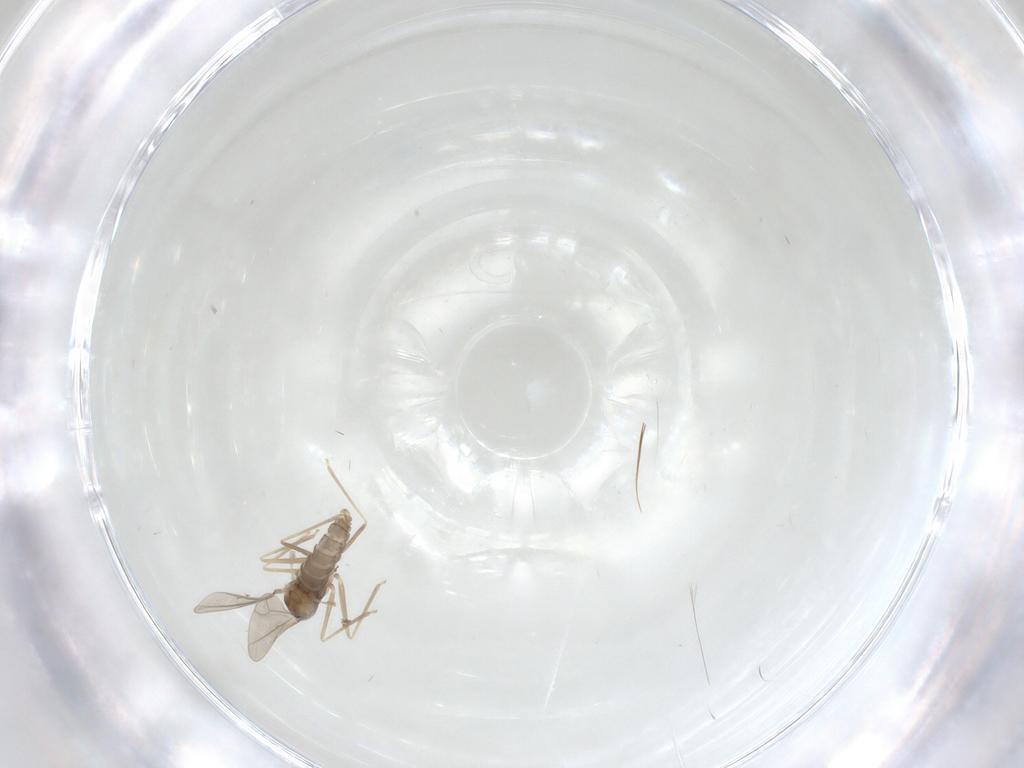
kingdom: Animalia
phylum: Arthropoda
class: Insecta
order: Diptera
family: Cecidomyiidae
